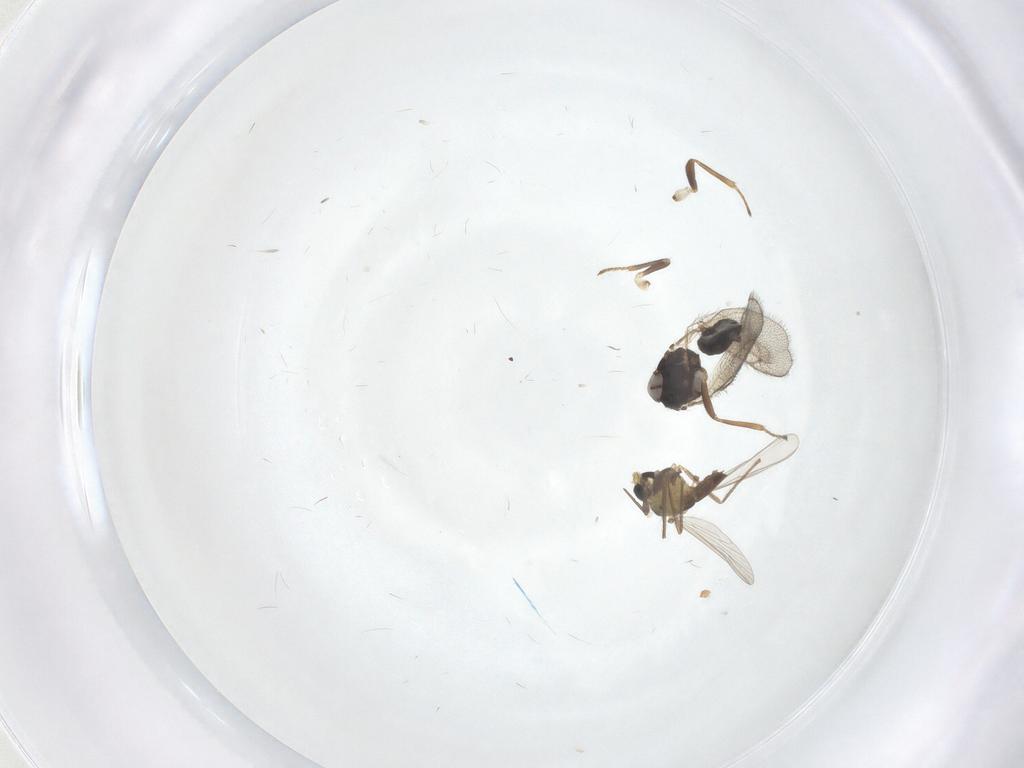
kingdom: Animalia
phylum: Arthropoda
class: Insecta
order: Hymenoptera
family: Eulophidae
